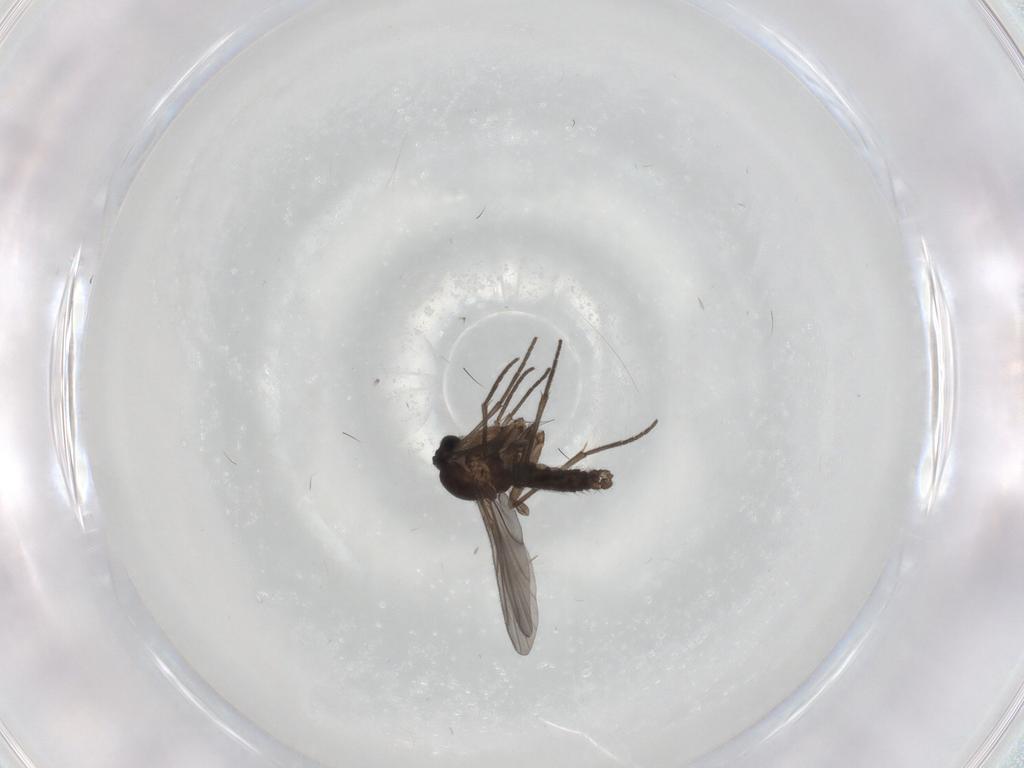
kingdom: Animalia
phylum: Arthropoda
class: Insecta
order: Diptera
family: Sciaridae
